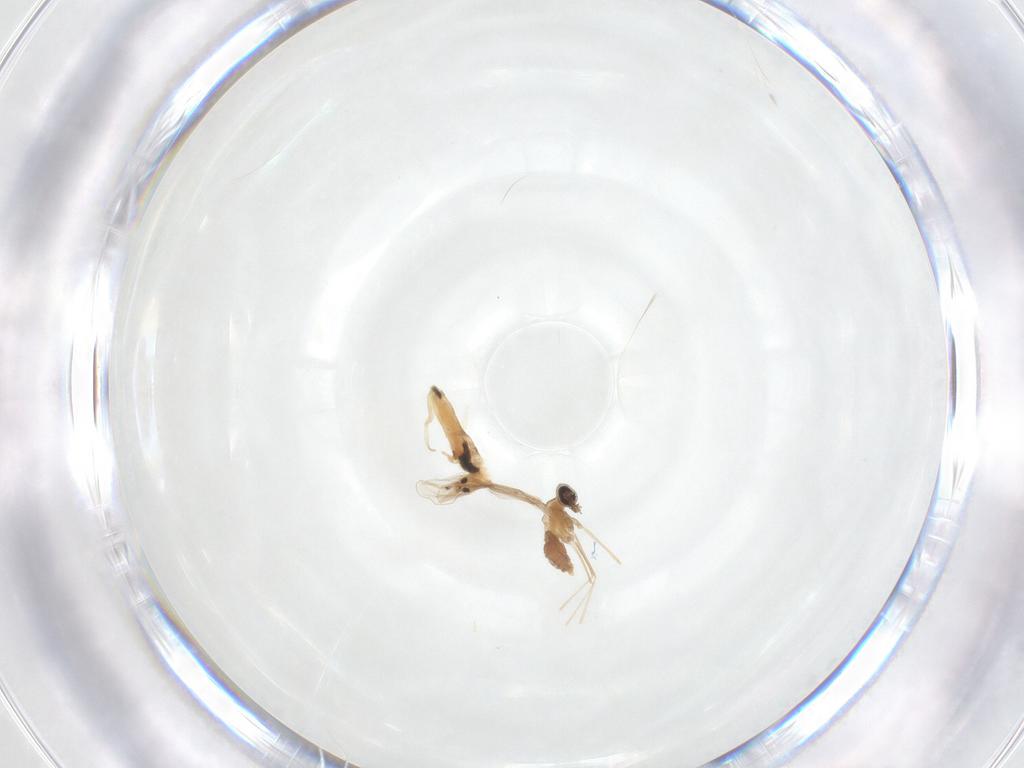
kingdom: Animalia
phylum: Arthropoda
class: Insecta
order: Diptera
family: Cecidomyiidae
